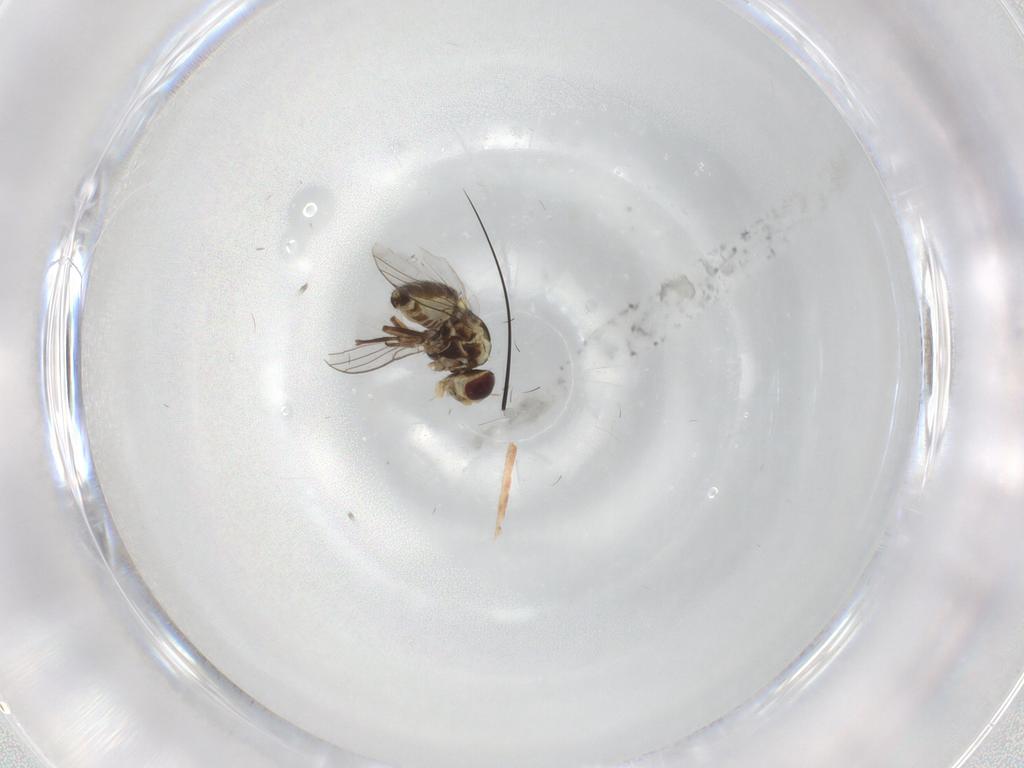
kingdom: Animalia
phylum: Arthropoda
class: Insecta
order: Diptera
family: Agromyzidae
